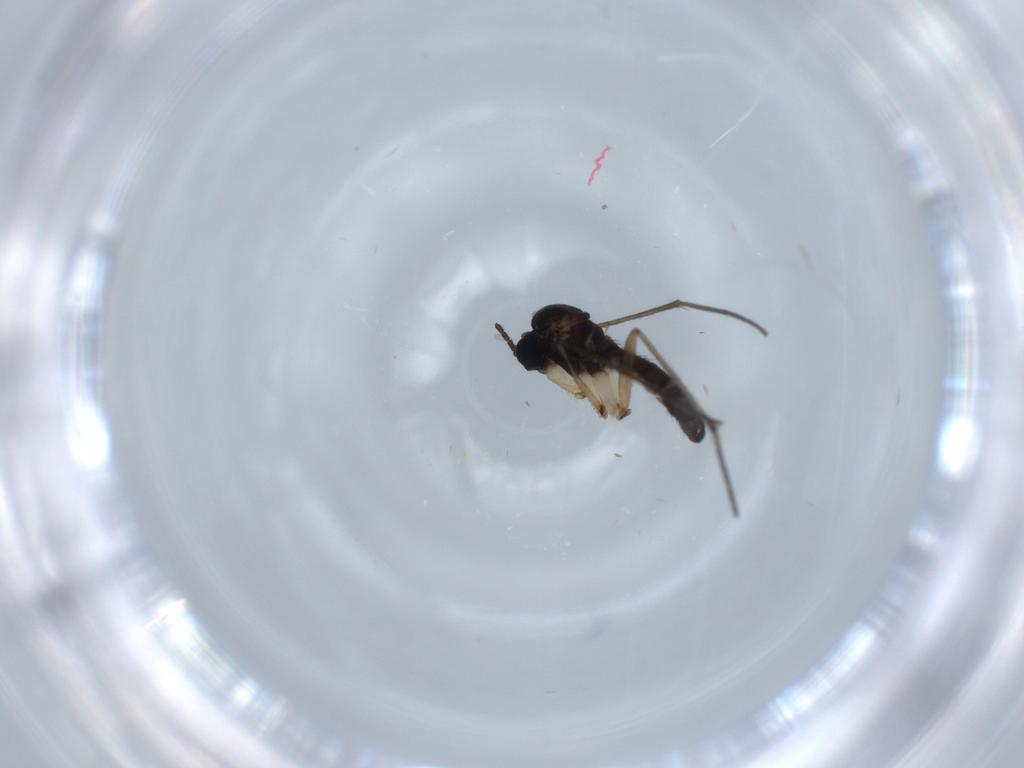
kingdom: Animalia
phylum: Arthropoda
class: Insecta
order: Diptera
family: Sciaridae
